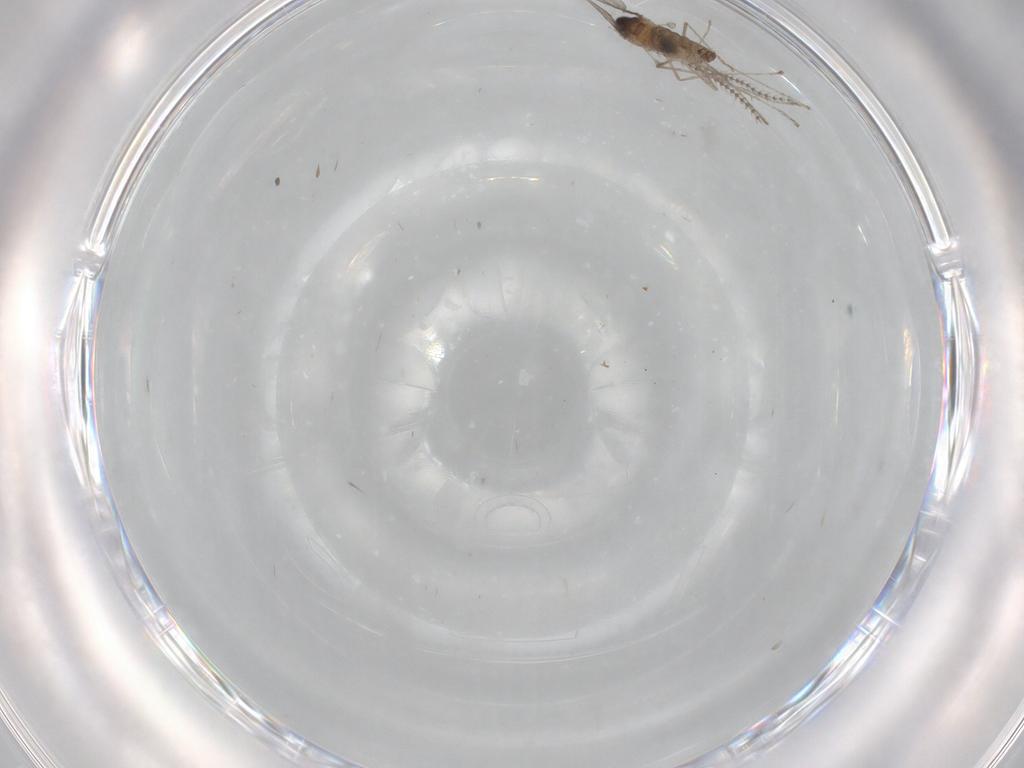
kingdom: Animalia
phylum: Arthropoda
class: Insecta
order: Diptera
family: Cecidomyiidae
